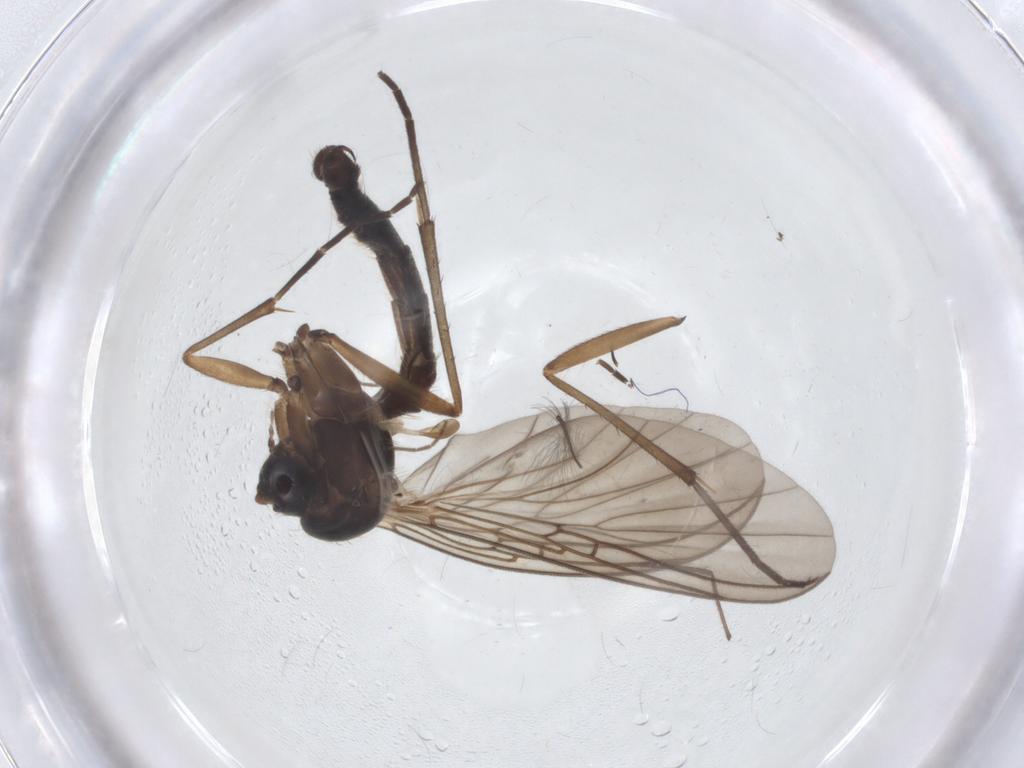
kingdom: Animalia
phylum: Arthropoda
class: Insecta
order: Diptera
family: Mycetophilidae
